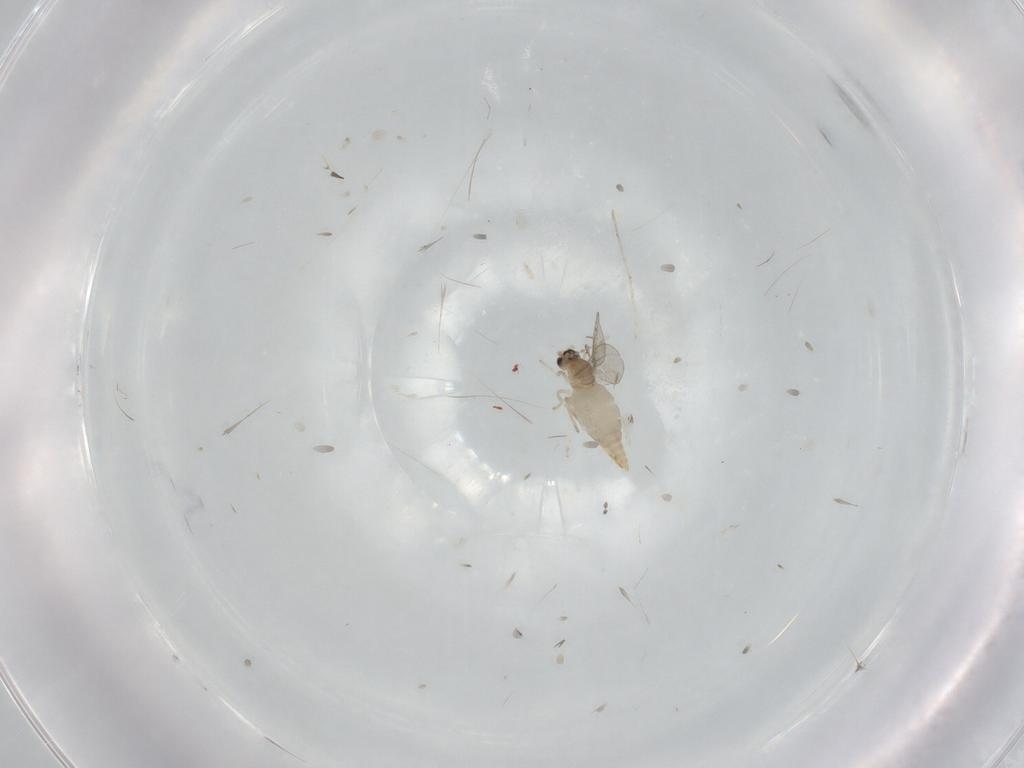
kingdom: Animalia
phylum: Arthropoda
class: Insecta
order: Diptera
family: Cecidomyiidae
